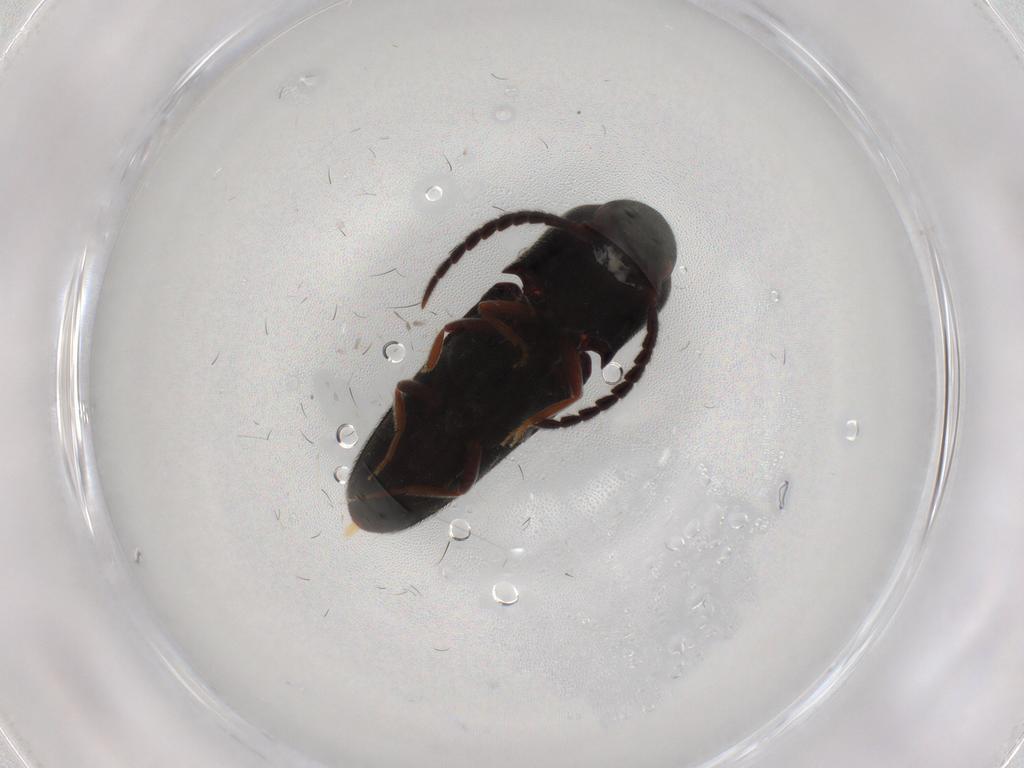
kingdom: Animalia
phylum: Arthropoda
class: Insecta
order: Coleoptera
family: Eucnemidae
